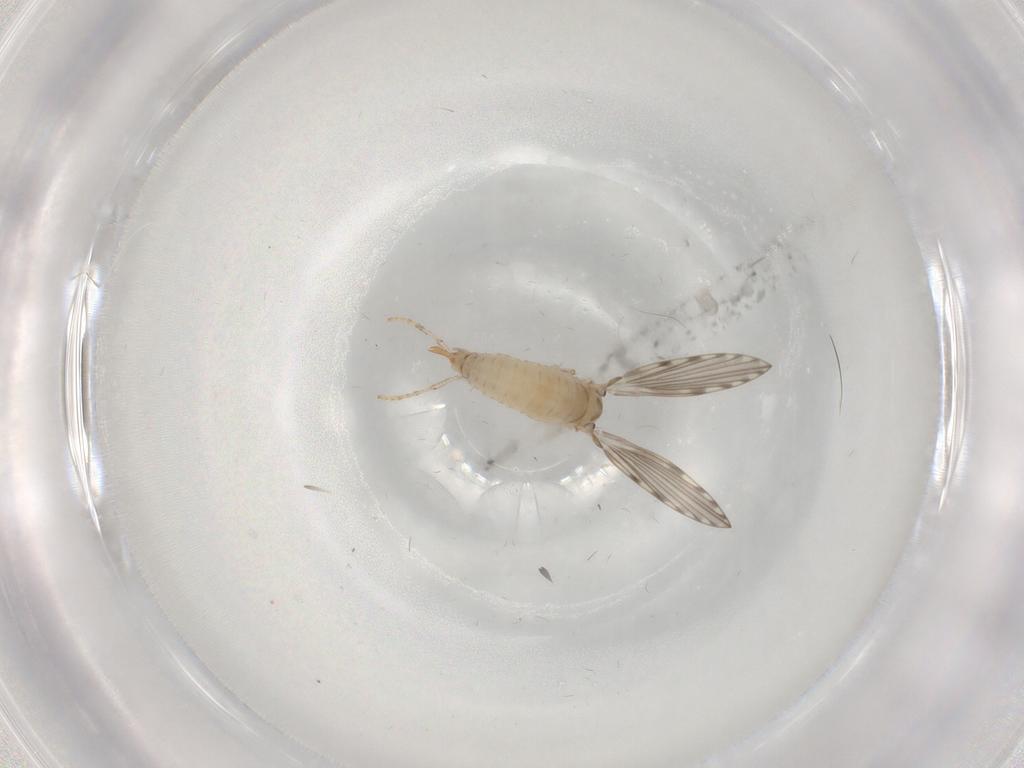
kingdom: Animalia
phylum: Arthropoda
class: Insecta
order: Diptera
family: Psychodidae
